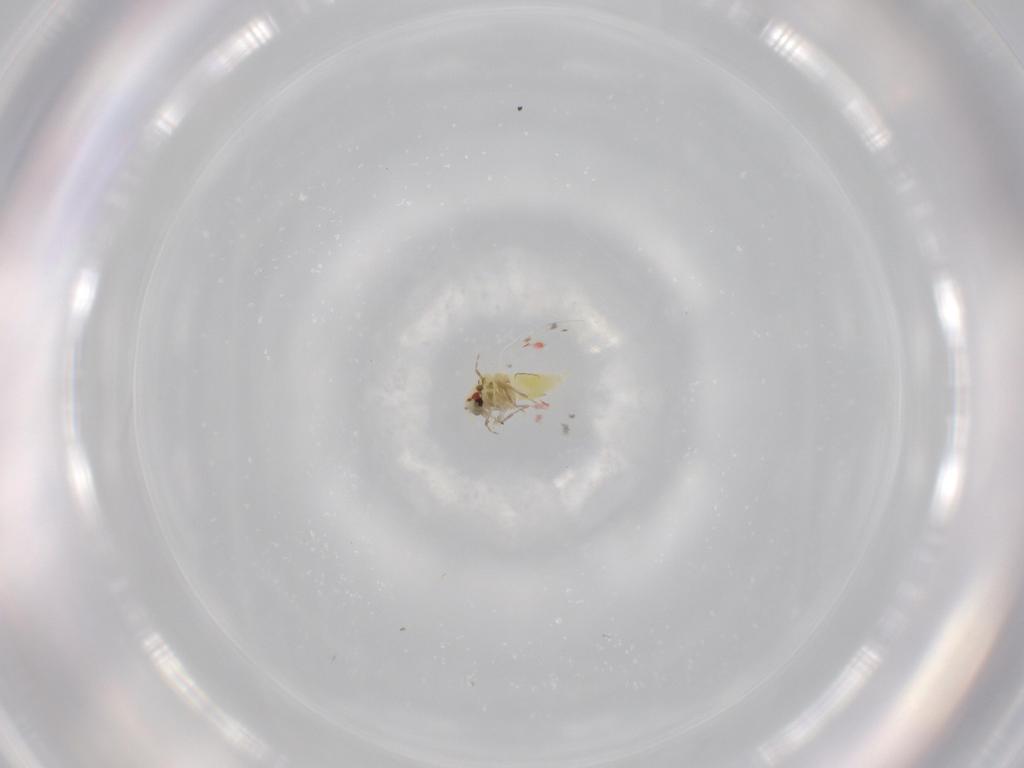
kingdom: Animalia
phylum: Arthropoda
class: Insecta
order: Hemiptera
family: Aleyrodidae
